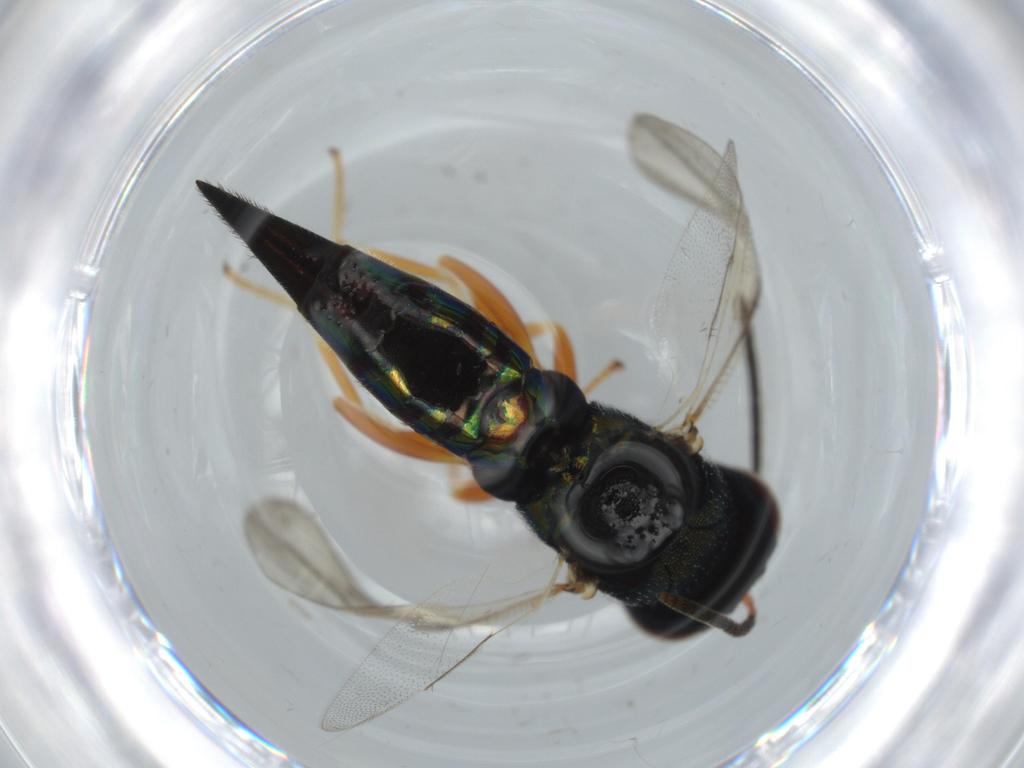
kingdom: Animalia
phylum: Arthropoda
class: Insecta
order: Hymenoptera
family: Pteromalidae
